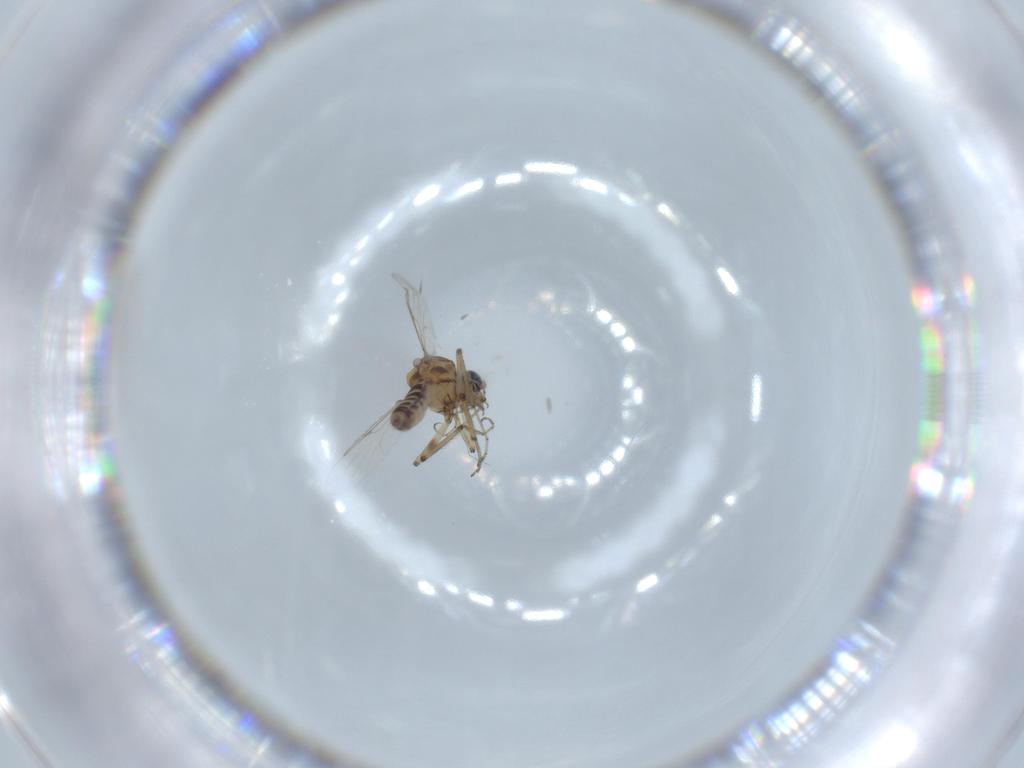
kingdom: Animalia
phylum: Arthropoda
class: Insecta
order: Diptera
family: Ceratopogonidae
